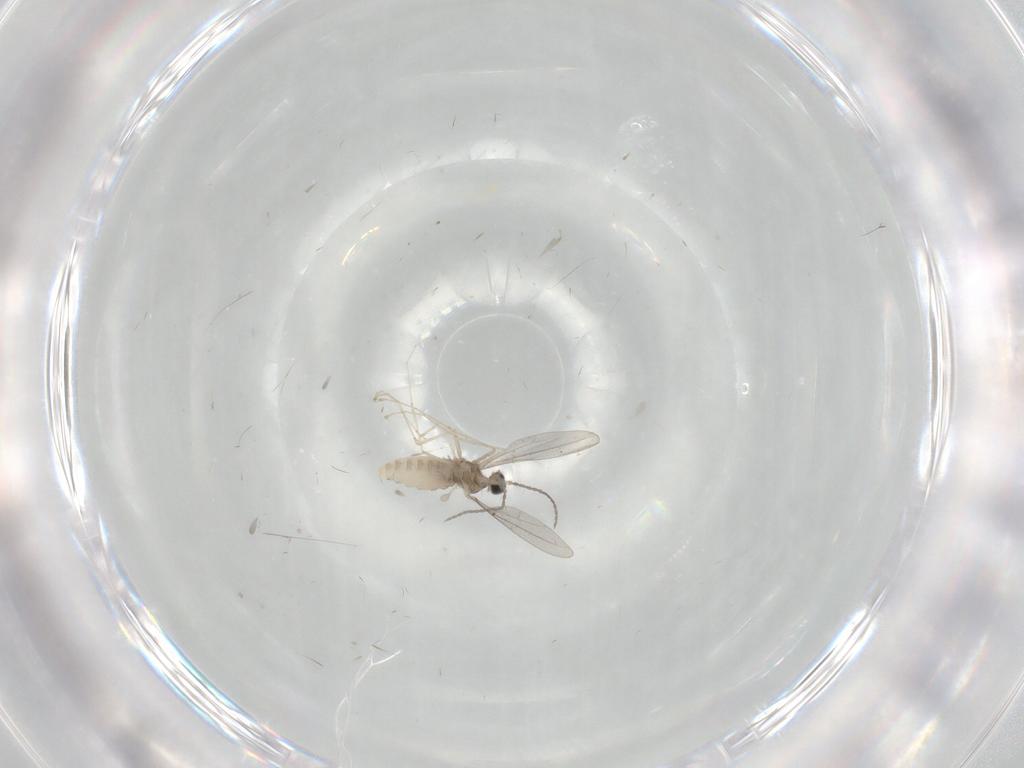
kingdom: Animalia
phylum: Arthropoda
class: Insecta
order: Diptera
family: Cecidomyiidae
